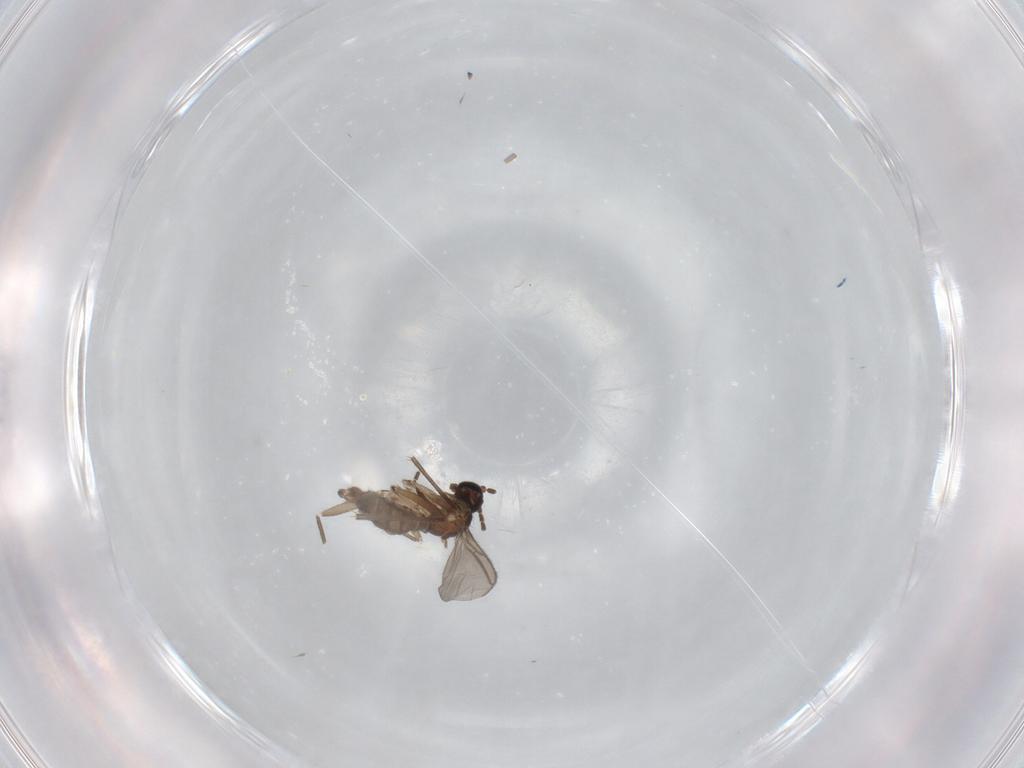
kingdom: Animalia
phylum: Arthropoda
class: Insecta
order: Diptera
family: Sciaridae
